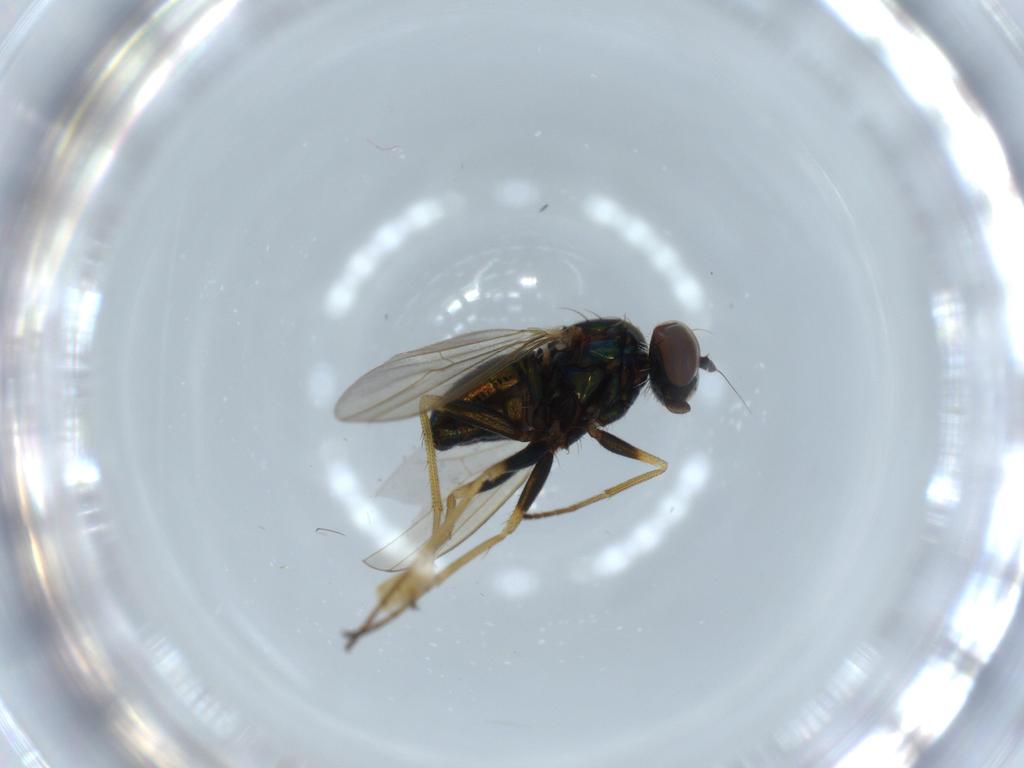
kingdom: Animalia
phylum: Arthropoda
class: Insecta
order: Diptera
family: Dolichopodidae
